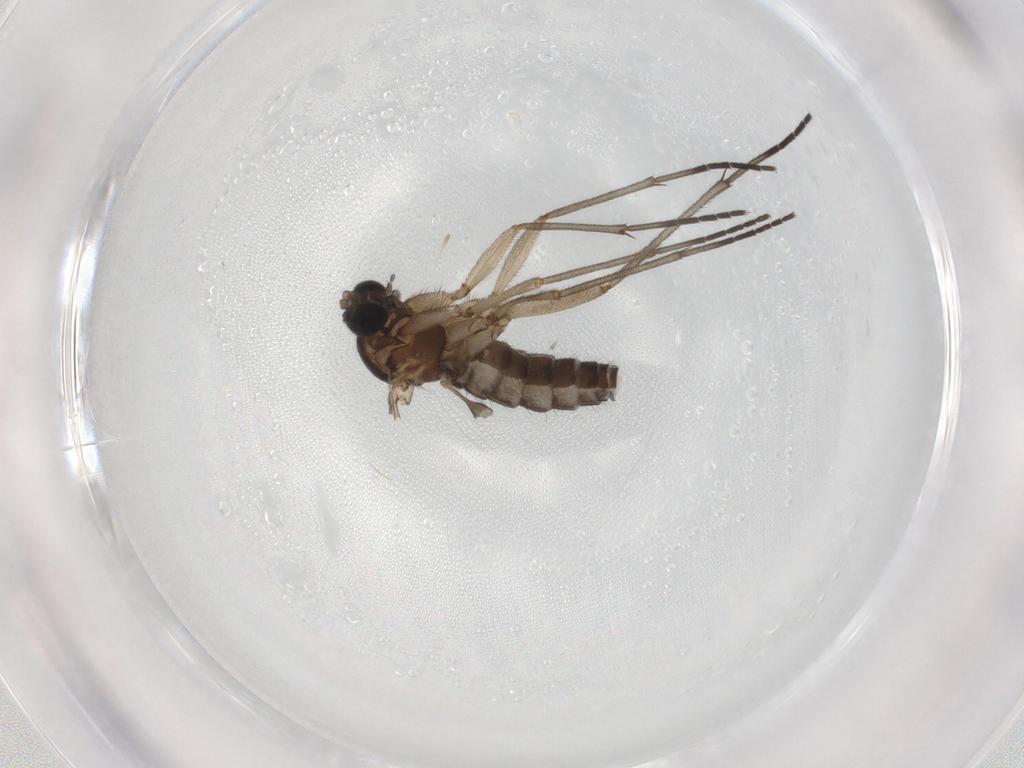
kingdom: Animalia
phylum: Arthropoda
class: Insecta
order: Diptera
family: Sciaridae
